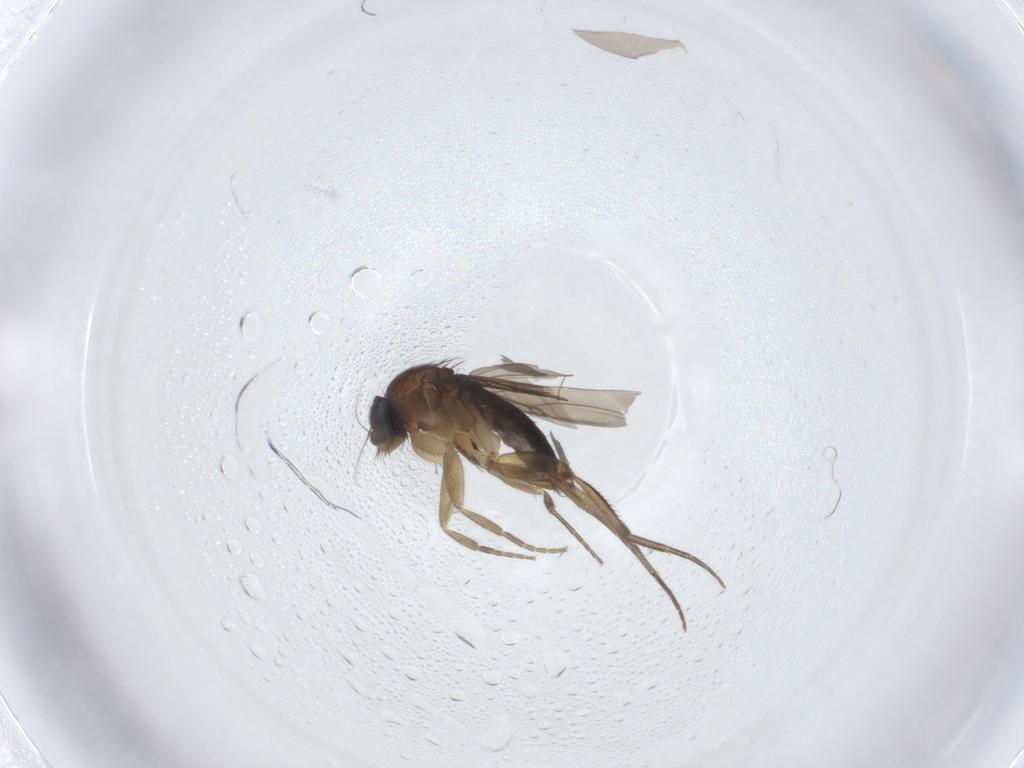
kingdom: Animalia
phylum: Arthropoda
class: Insecta
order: Diptera
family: Phoridae
